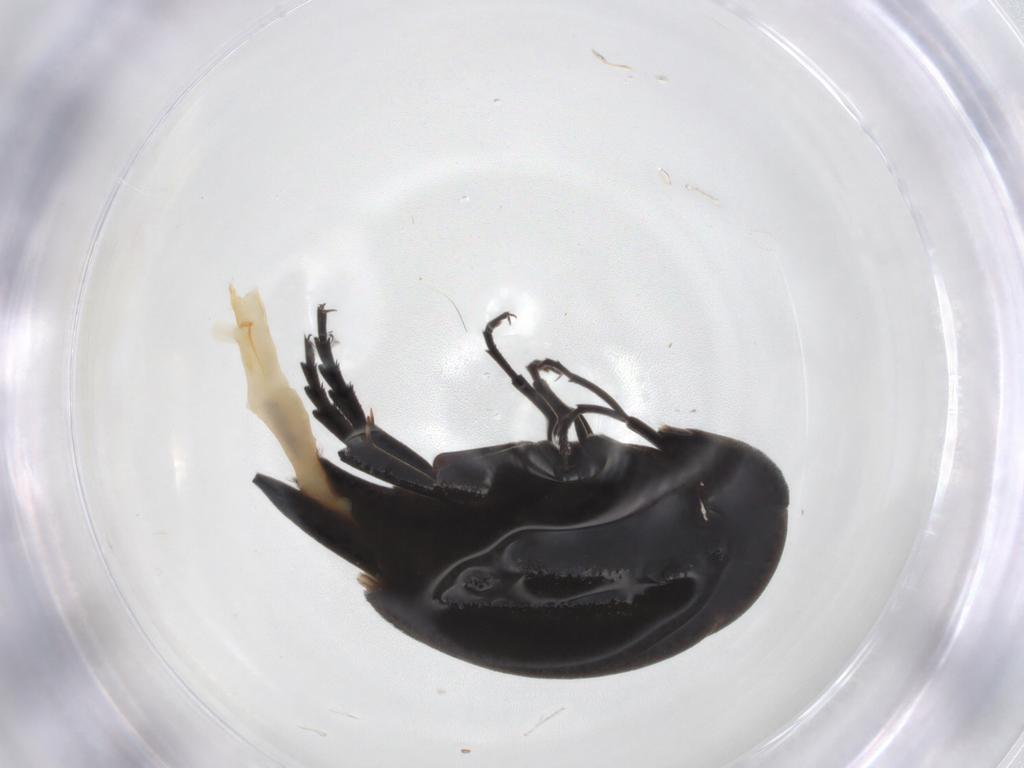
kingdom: Animalia
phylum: Arthropoda
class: Insecta
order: Coleoptera
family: Mordellidae
